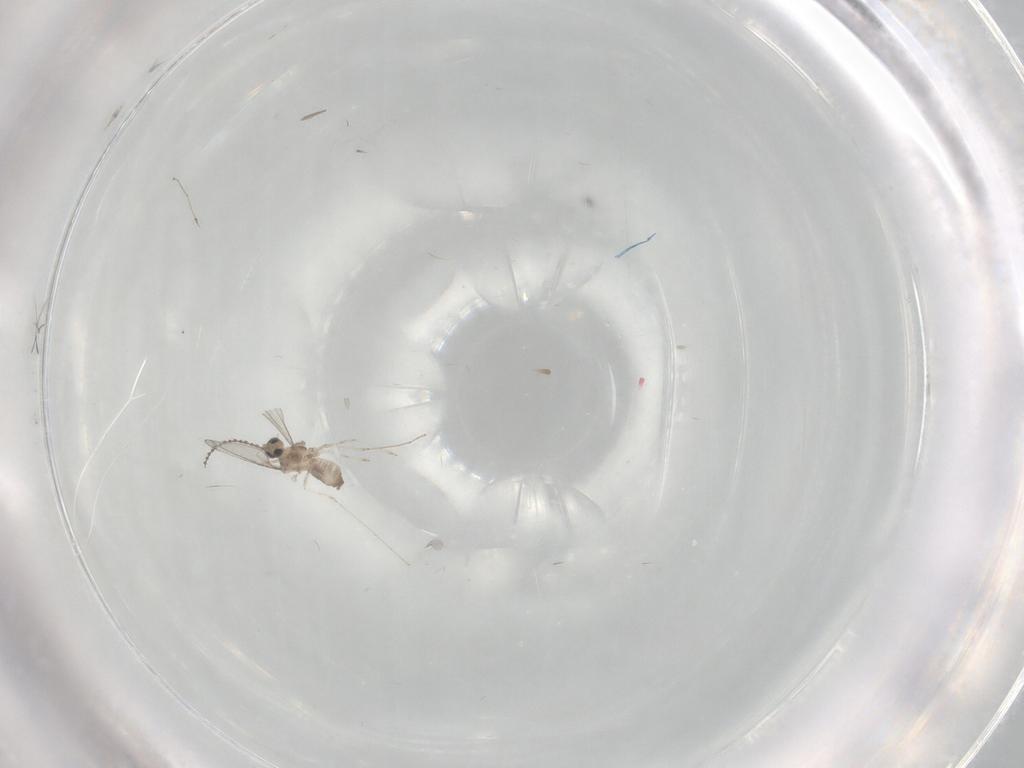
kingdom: Animalia
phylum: Arthropoda
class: Insecta
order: Diptera
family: Cecidomyiidae
